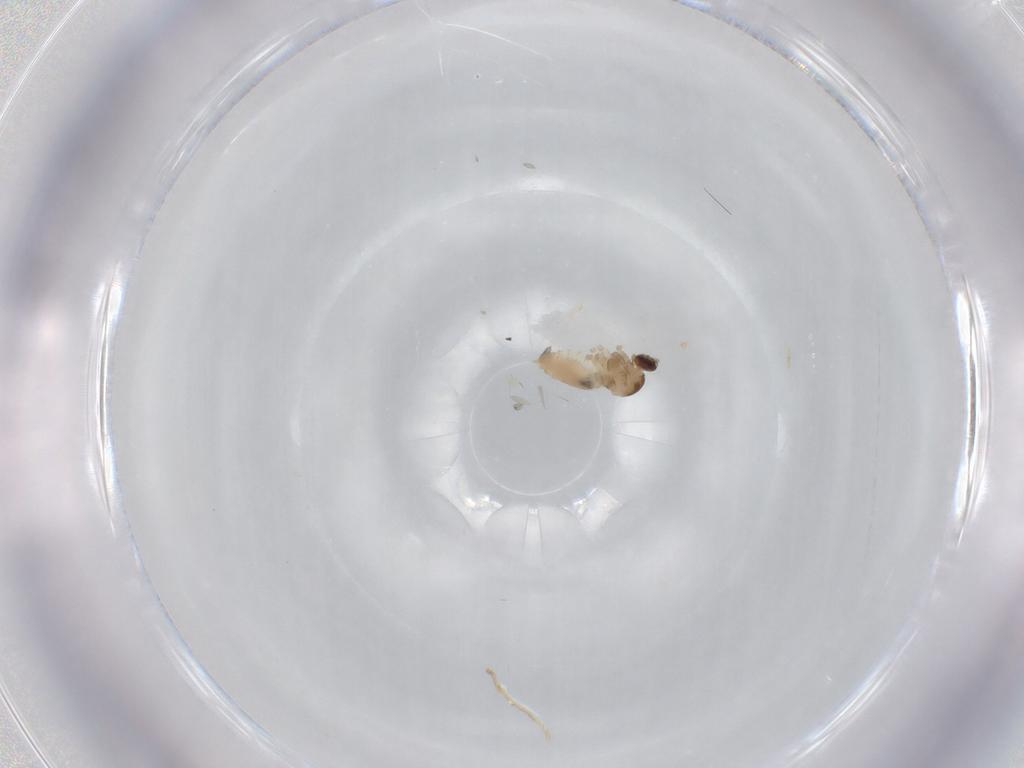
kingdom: Animalia
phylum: Arthropoda
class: Insecta
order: Diptera
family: Cecidomyiidae
